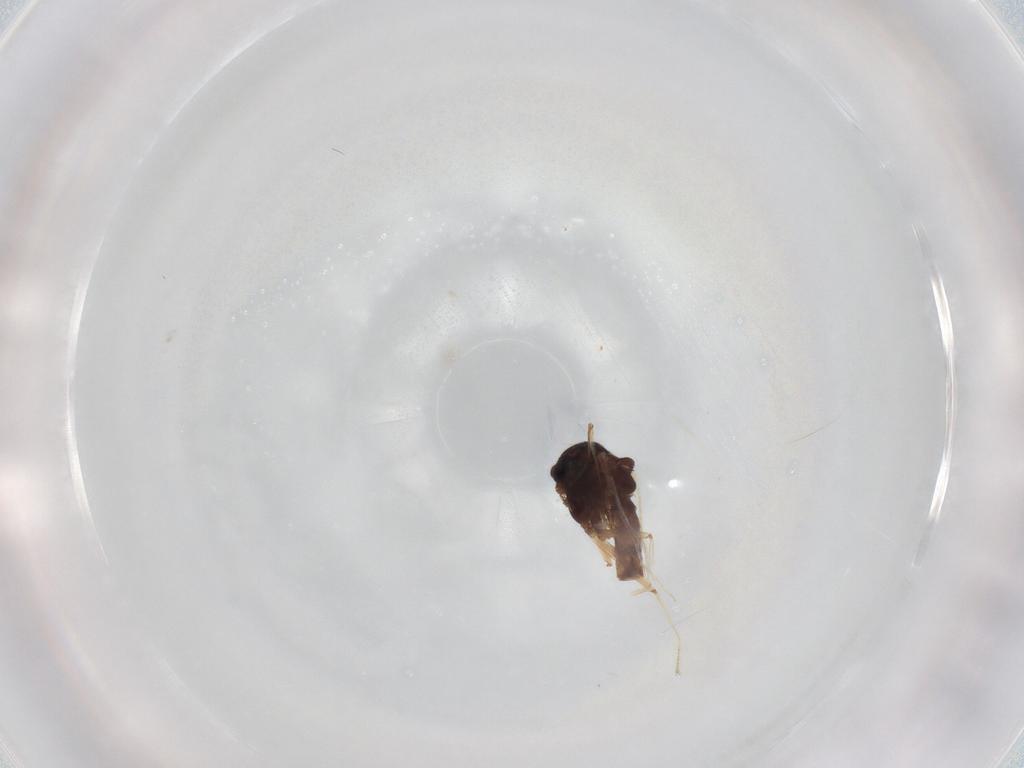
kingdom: Animalia
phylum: Arthropoda
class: Insecta
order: Diptera
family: Chironomidae
